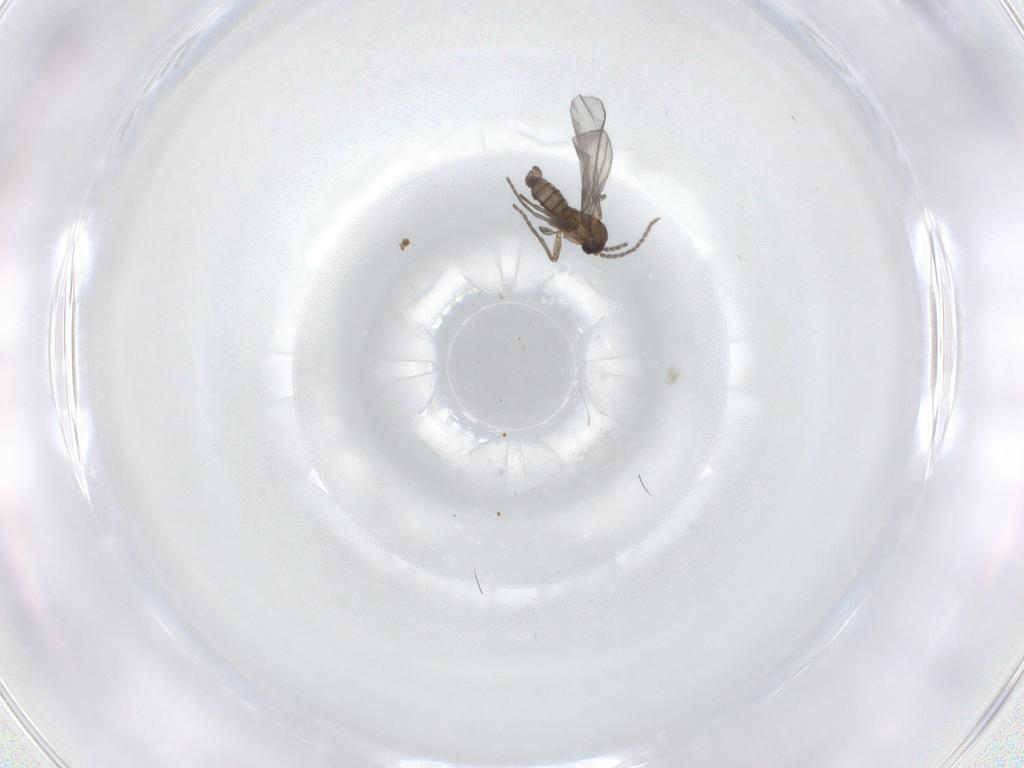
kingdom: Animalia
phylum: Arthropoda
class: Insecta
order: Diptera
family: Sciaridae
